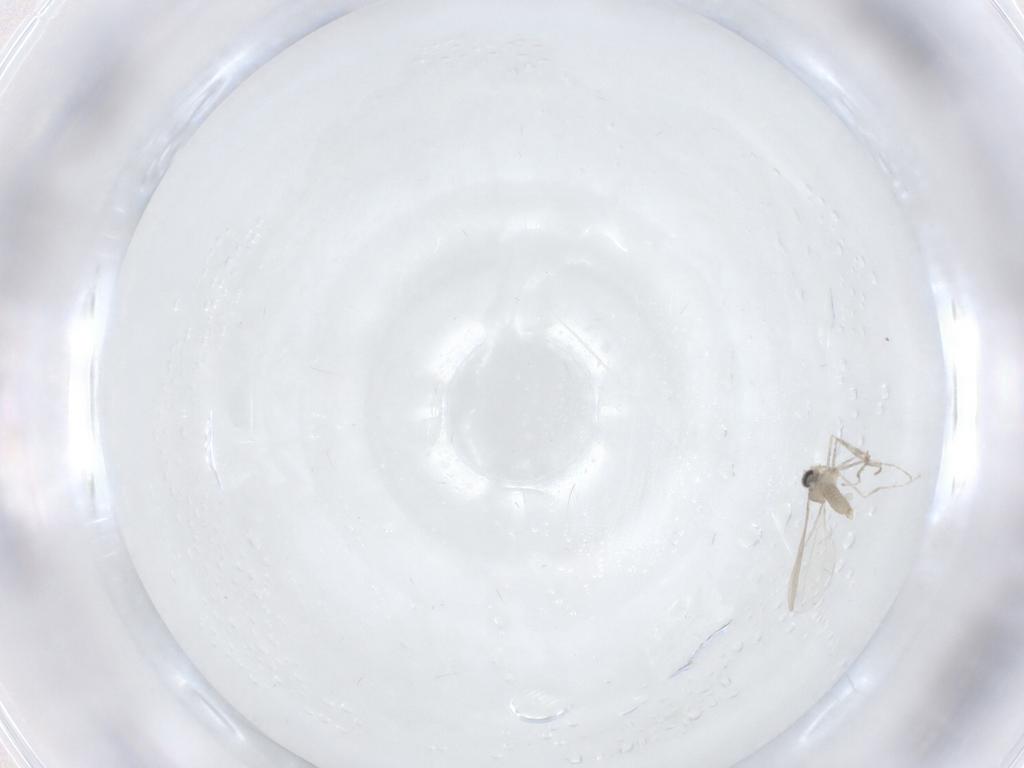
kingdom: Animalia
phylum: Arthropoda
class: Insecta
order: Diptera
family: Cecidomyiidae
